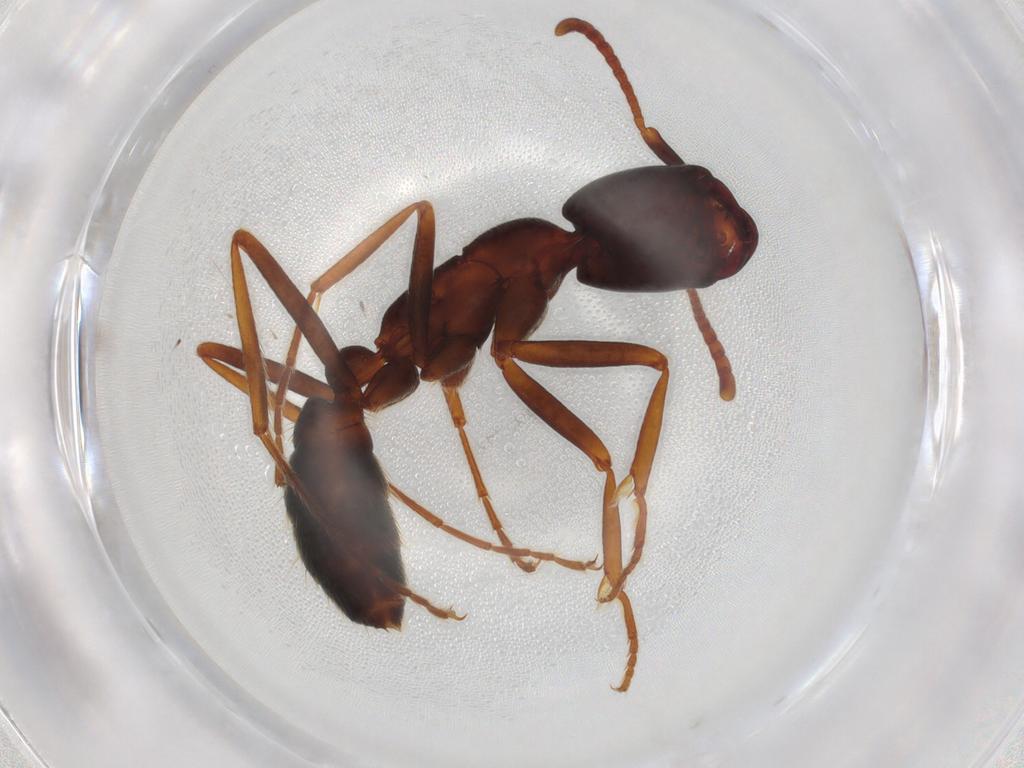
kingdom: Animalia
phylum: Arthropoda
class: Insecta
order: Hymenoptera
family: Formicidae
